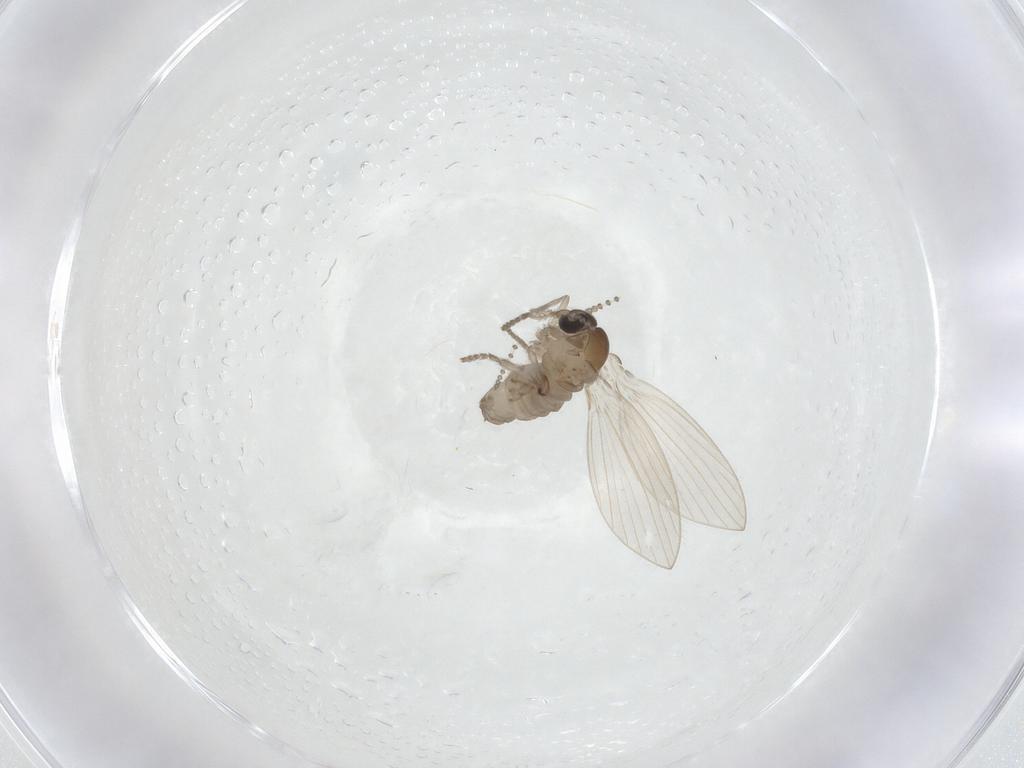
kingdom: Animalia
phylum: Arthropoda
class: Insecta
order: Diptera
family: Psychodidae
